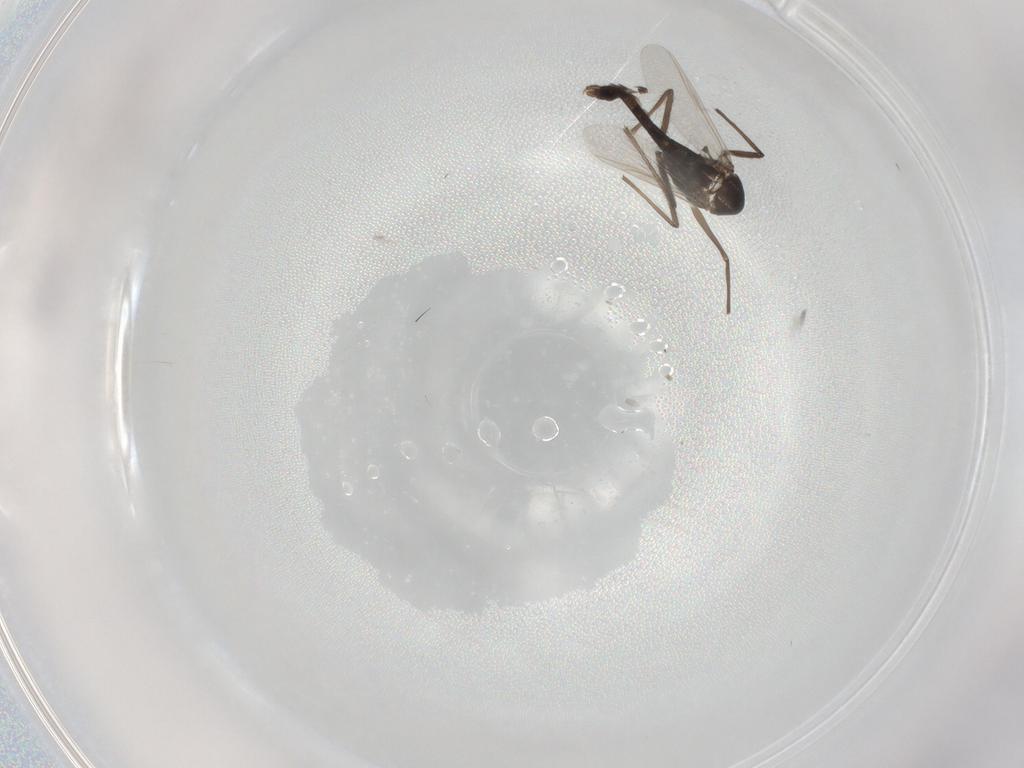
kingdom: Animalia
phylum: Arthropoda
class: Insecta
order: Diptera
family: Chironomidae
